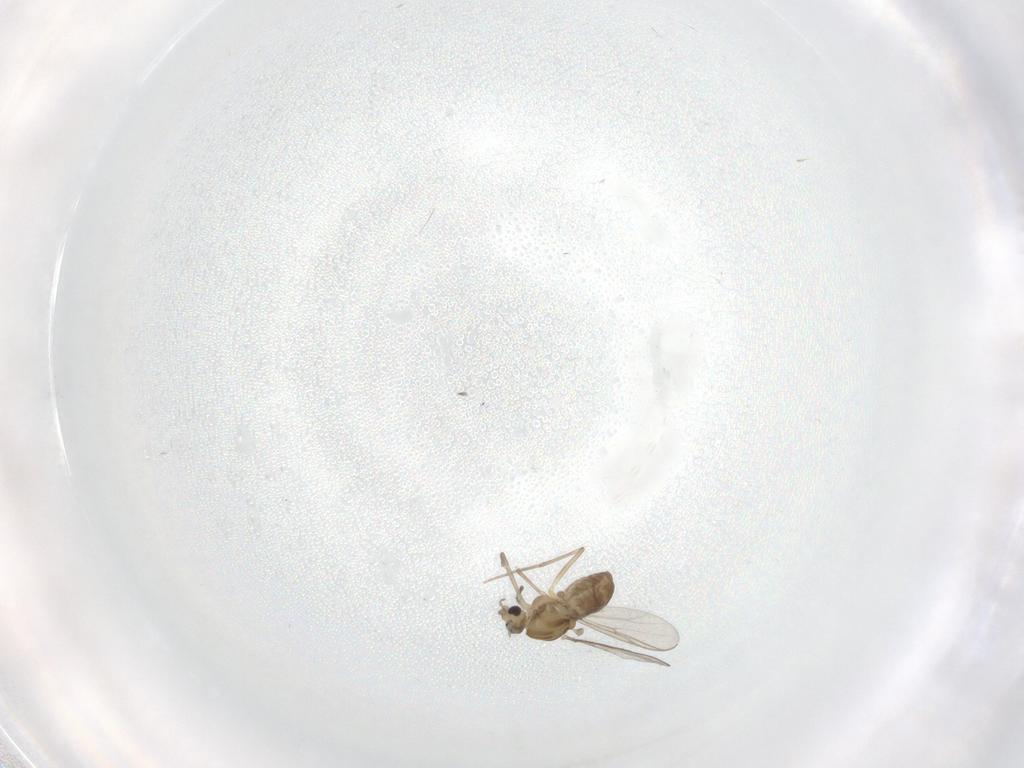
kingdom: Animalia
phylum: Arthropoda
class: Insecta
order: Diptera
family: Chironomidae
